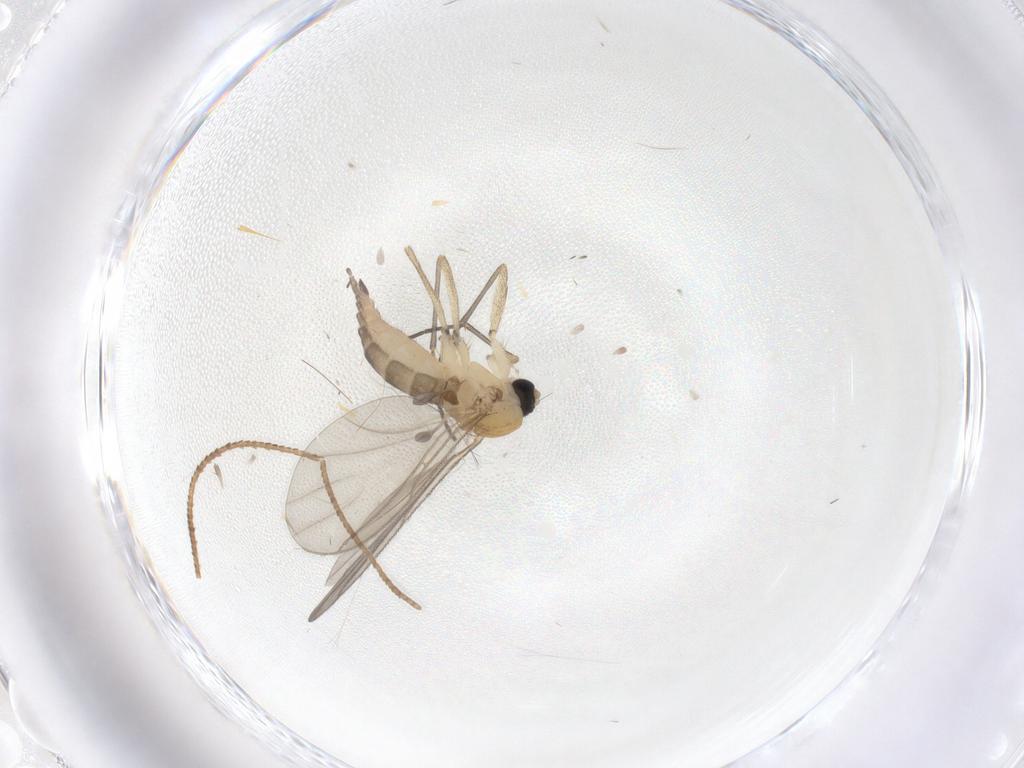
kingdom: Animalia
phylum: Arthropoda
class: Insecta
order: Diptera
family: Sciaridae
